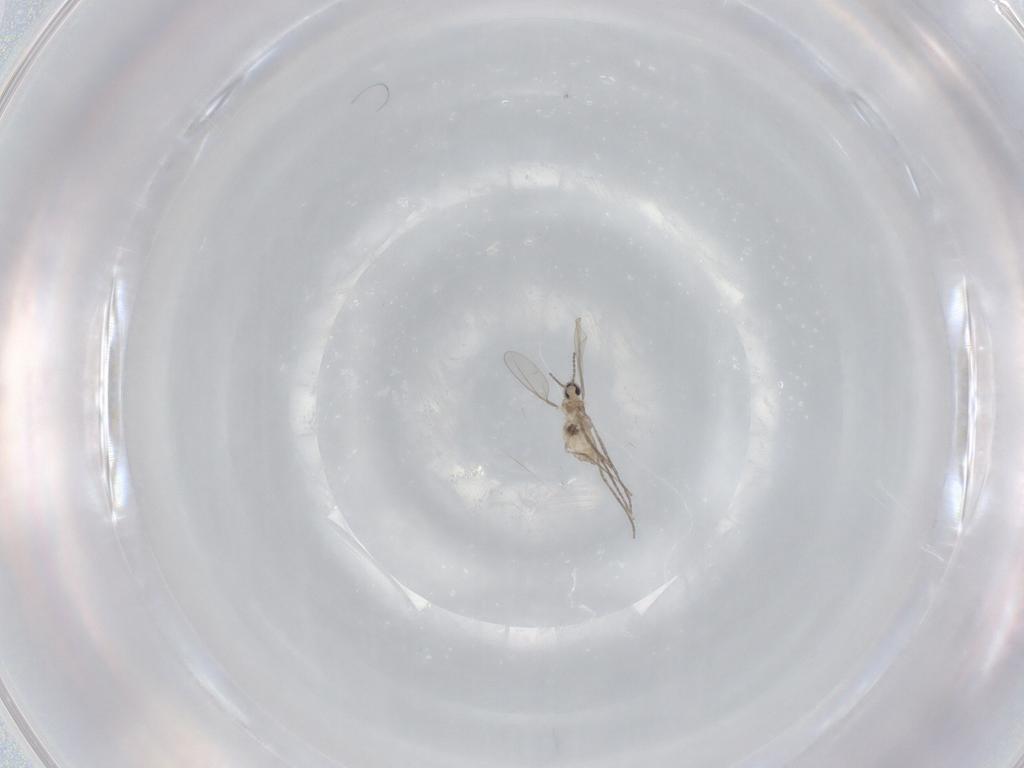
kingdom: Animalia
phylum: Arthropoda
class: Insecta
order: Diptera
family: Cecidomyiidae
